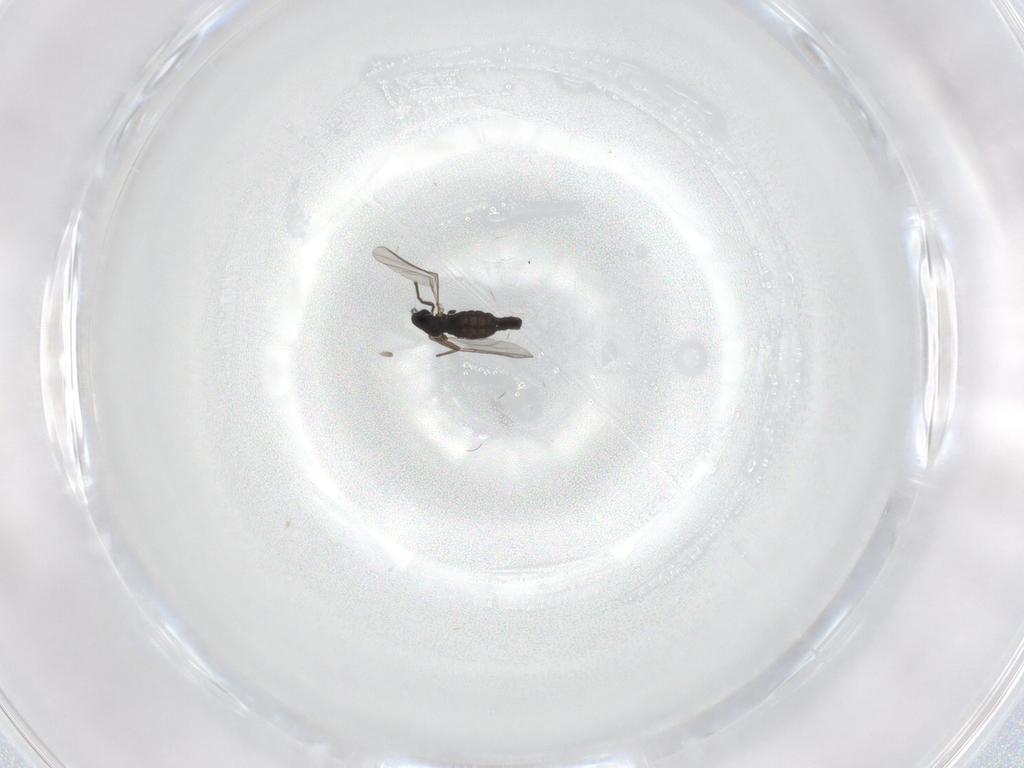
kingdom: Animalia
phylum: Arthropoda
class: Insecta
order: Diptera
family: Chironomidae
